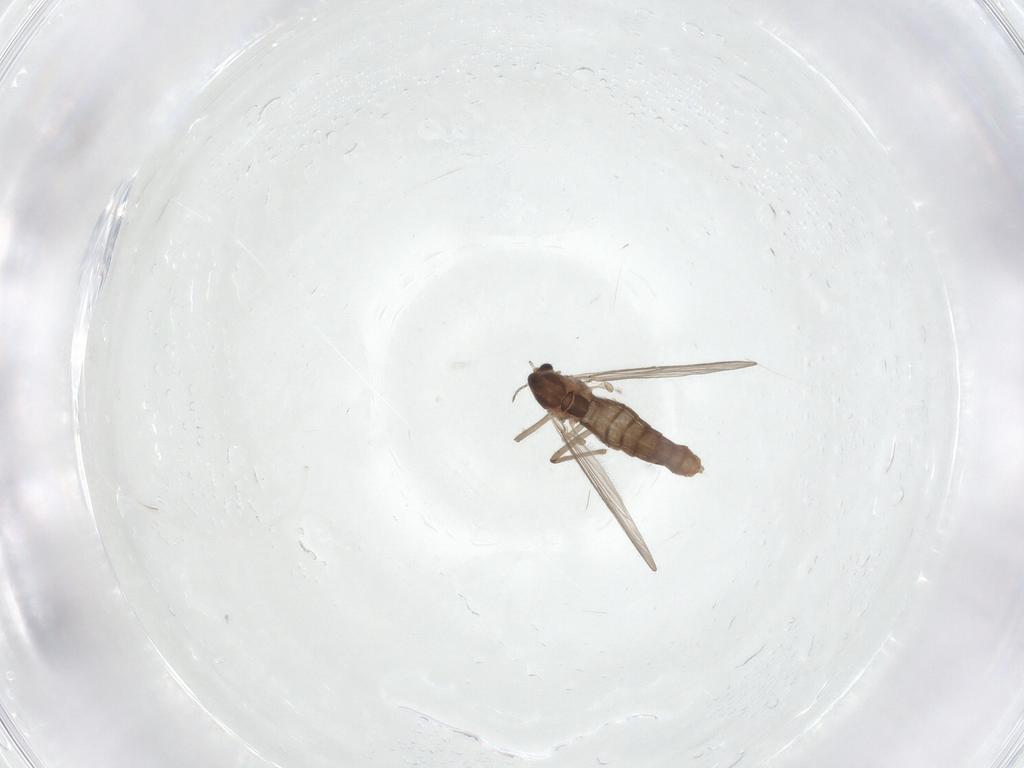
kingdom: Animalia
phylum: Arthropoda
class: Insecta
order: Diptera
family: Chironomidae
